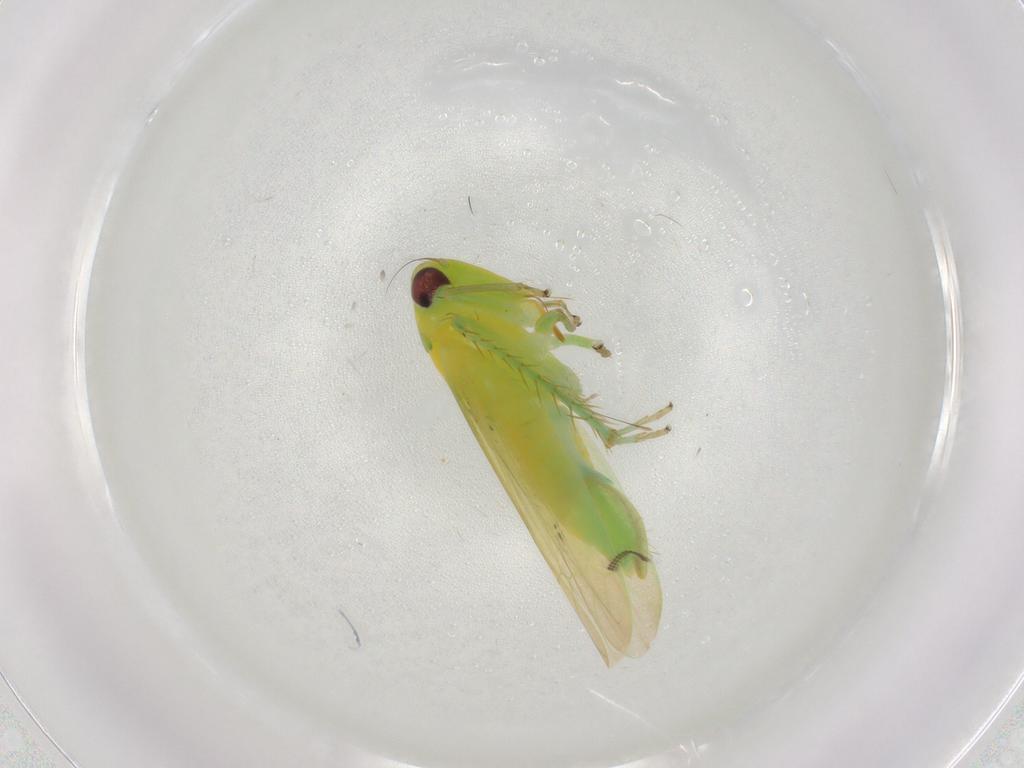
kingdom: Animalia
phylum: Arthropoda
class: Insecta
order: Hemiptera
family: Cicadellidae
